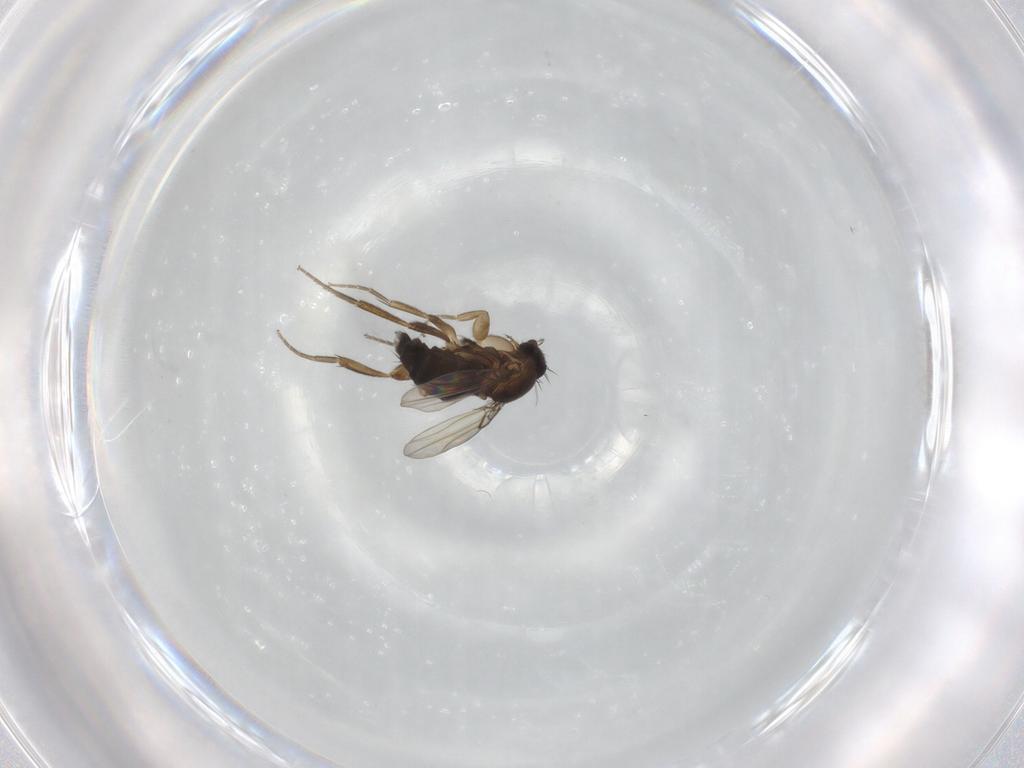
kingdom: Animalia
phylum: Arthropoda
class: Insecta
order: Diptera
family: Phoridae
